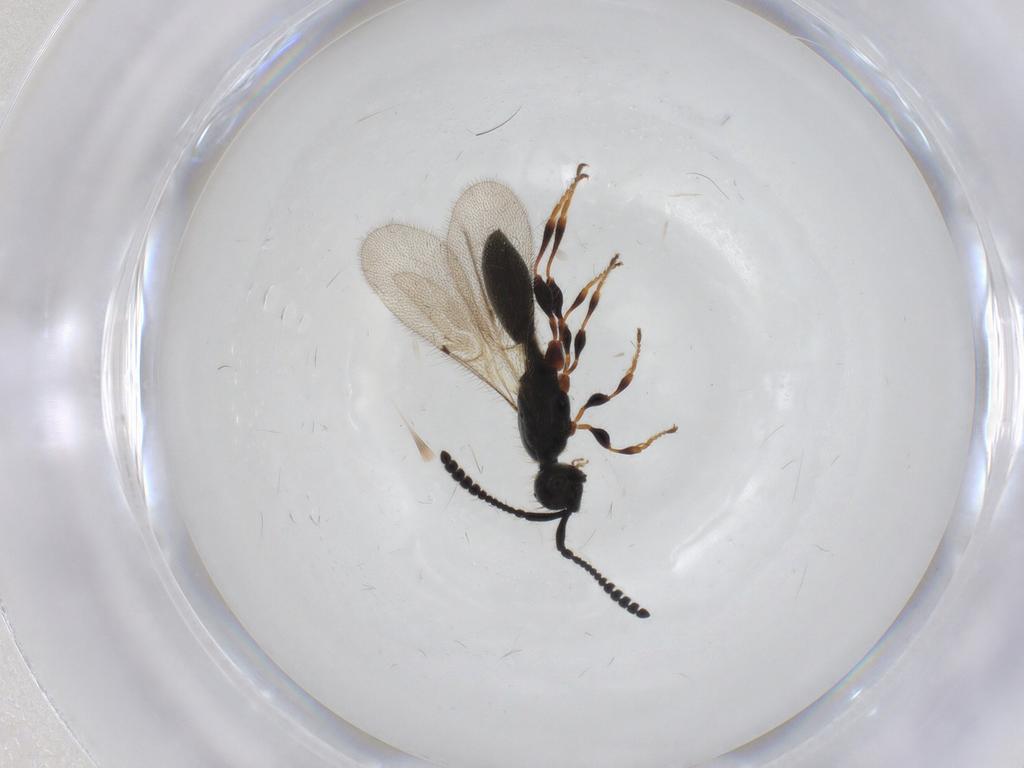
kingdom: Animalia
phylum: Arthropoda
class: Insecta
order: Hymenoptera
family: Diapriidae
